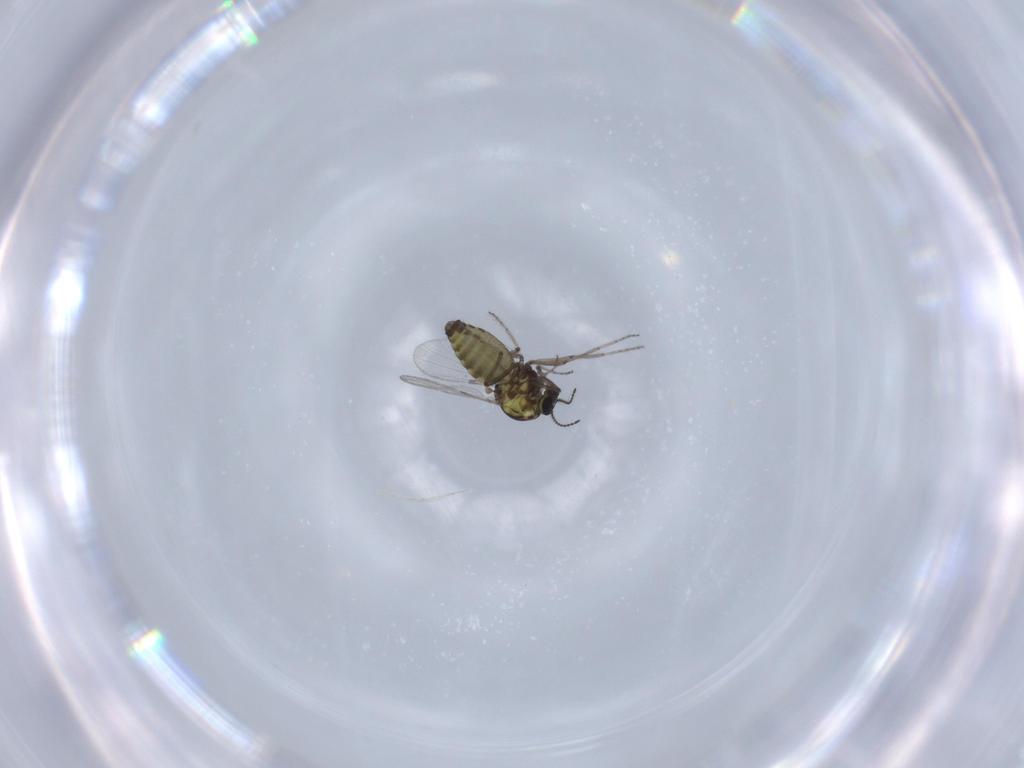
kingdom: Animalia
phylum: Arthropoda
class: Insecta
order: Diptera
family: Ceratopogonidae
